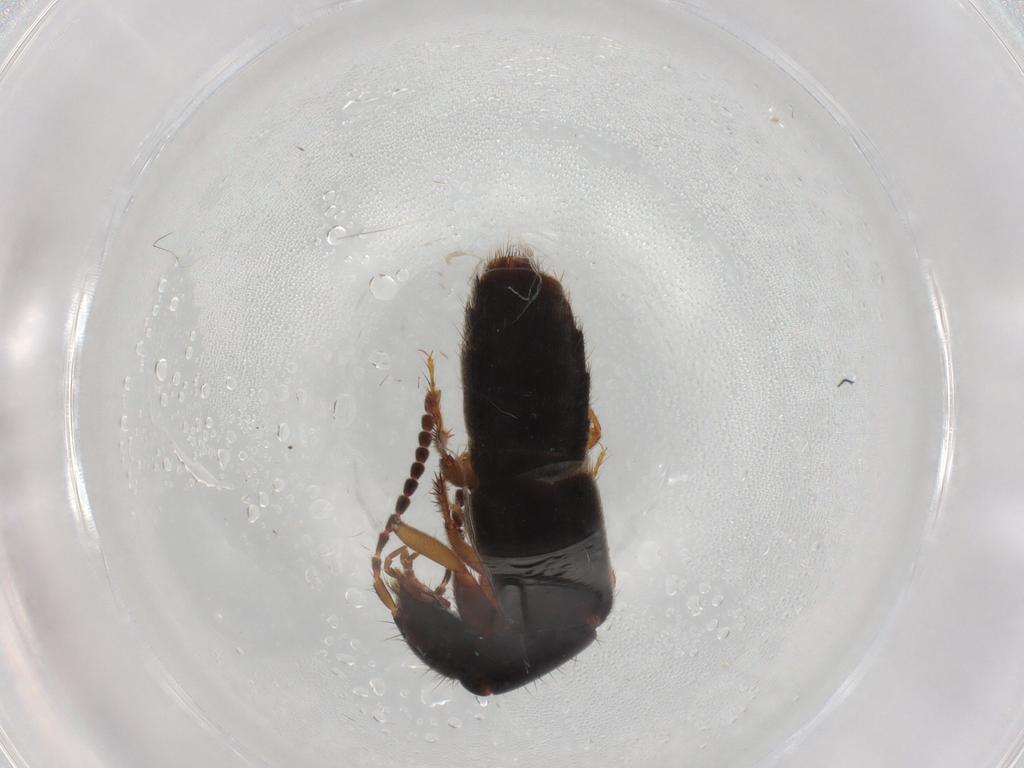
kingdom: Animalia
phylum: Arthropoda
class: Insecta
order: Coleoptera
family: Staphylinidae
